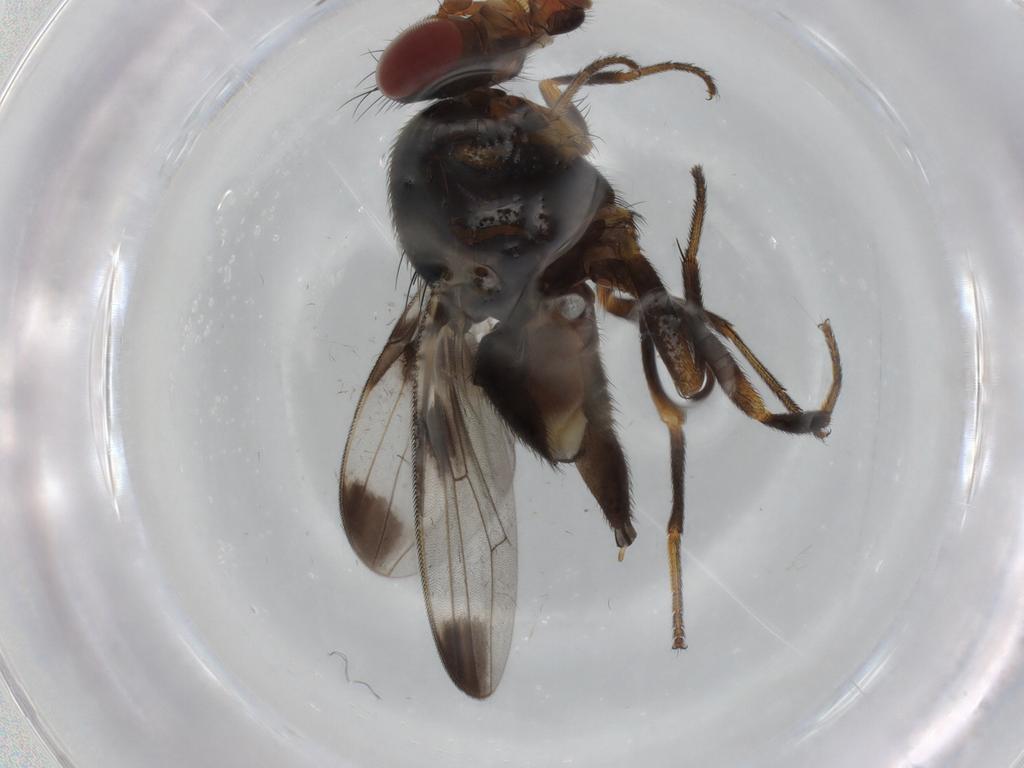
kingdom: Animalia
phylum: Arthropoda
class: Insecta
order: Diptera
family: Ulidiidae
